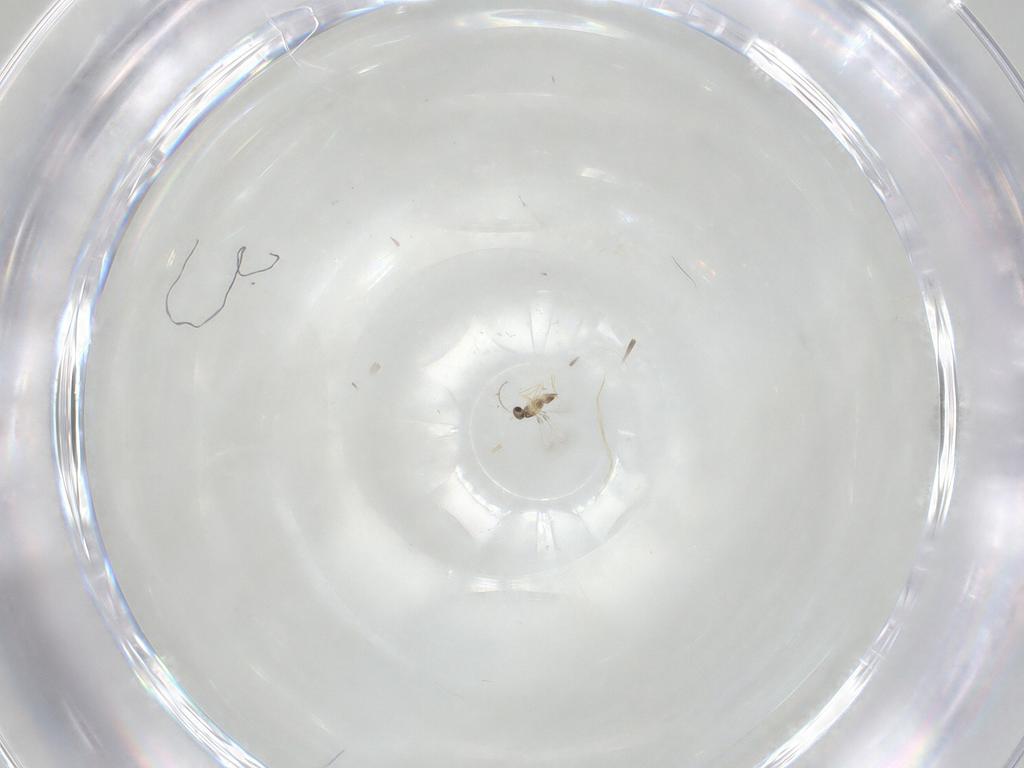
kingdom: Animalia
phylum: Arthropoda
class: Insecta
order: Hymenoptera
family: Mymaridae
